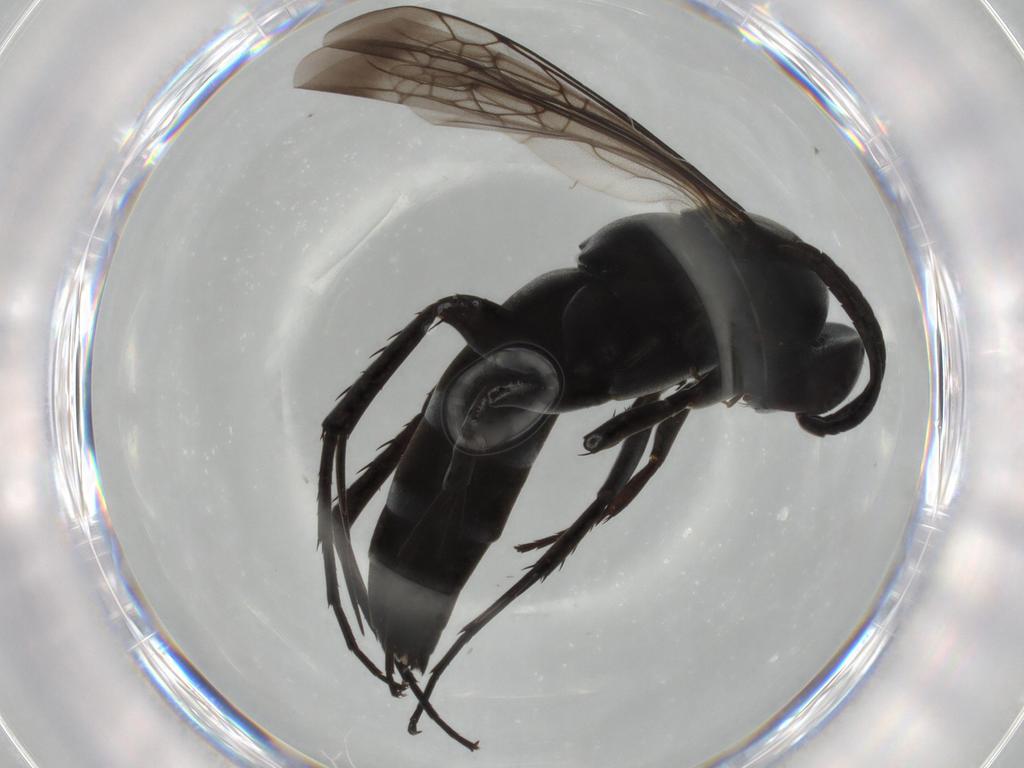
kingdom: Animalia
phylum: Arthropoda
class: Insecta
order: Hymenoptera
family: Pompilidae
